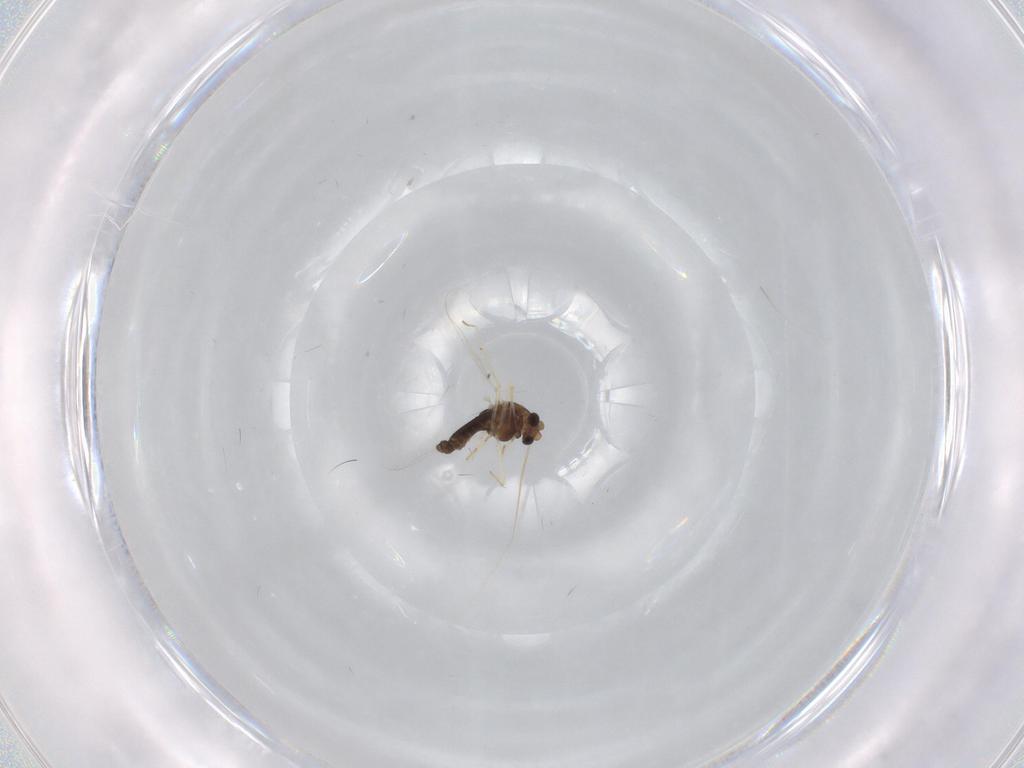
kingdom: Animalia
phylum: Arthropoda
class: Insecta
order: Diptera
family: Chironomidae
